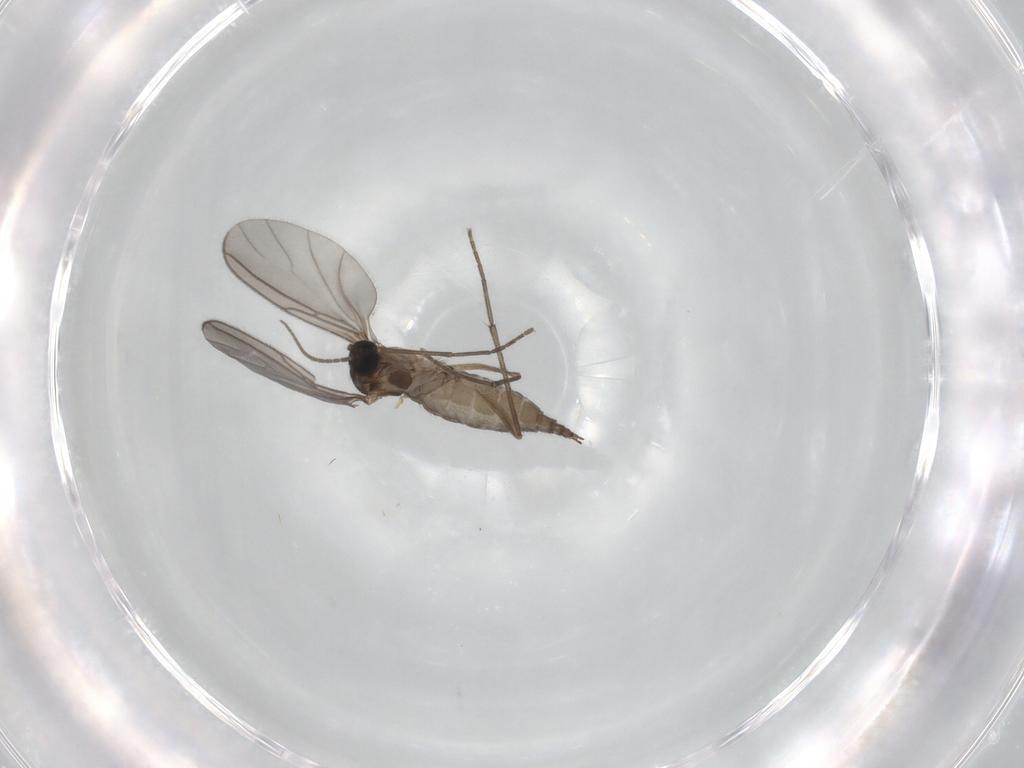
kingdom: Animalia
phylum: Arthropoda
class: Insecta
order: Diptera
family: Sciaridae
